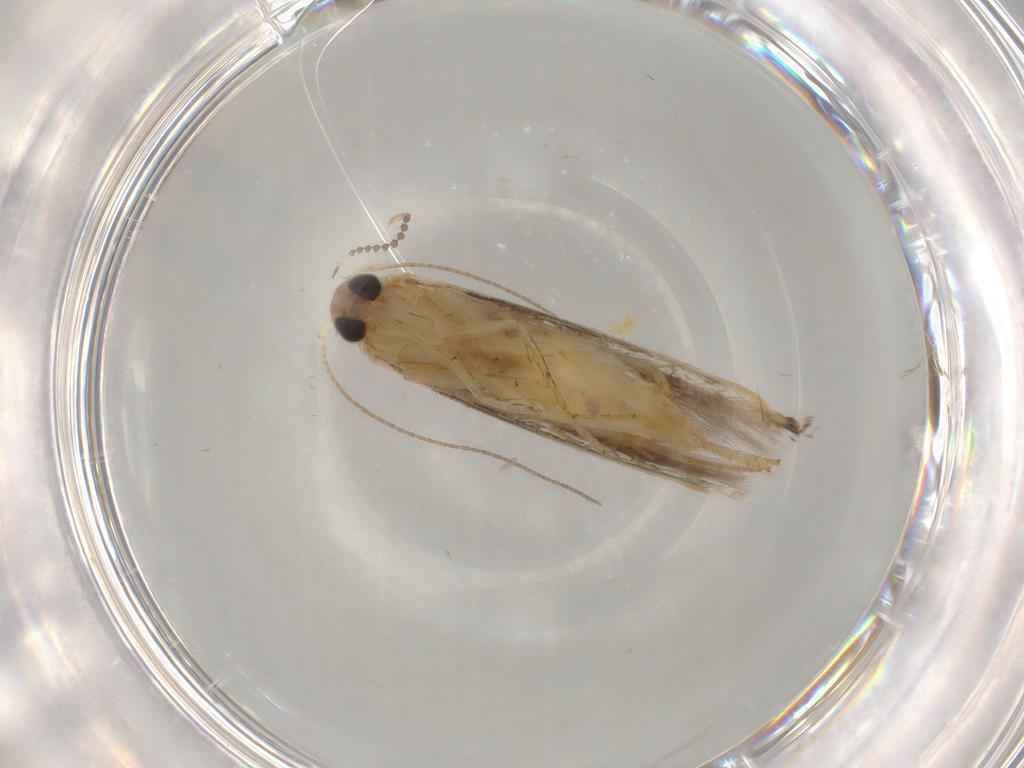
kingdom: Animalia
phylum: Arthropoda
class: Insecta
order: Lepidoptera
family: Gelechiidae
